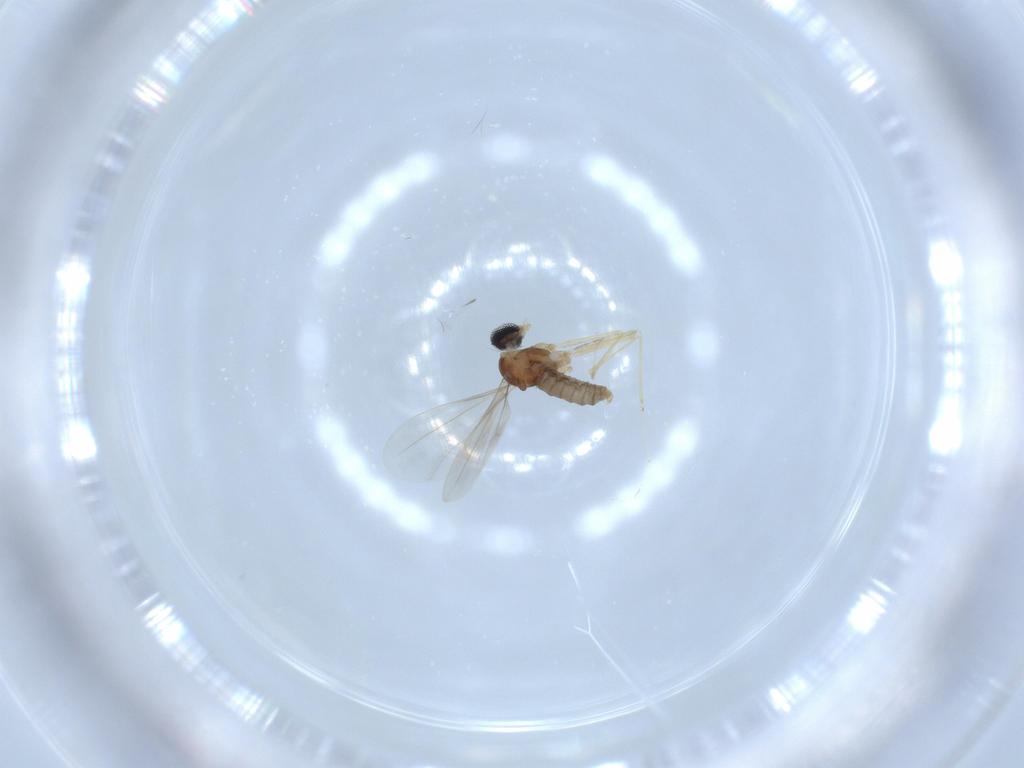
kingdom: Animalia
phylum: Arthropoda
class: Insecta
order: Diptera
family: Cecidomyiidae
